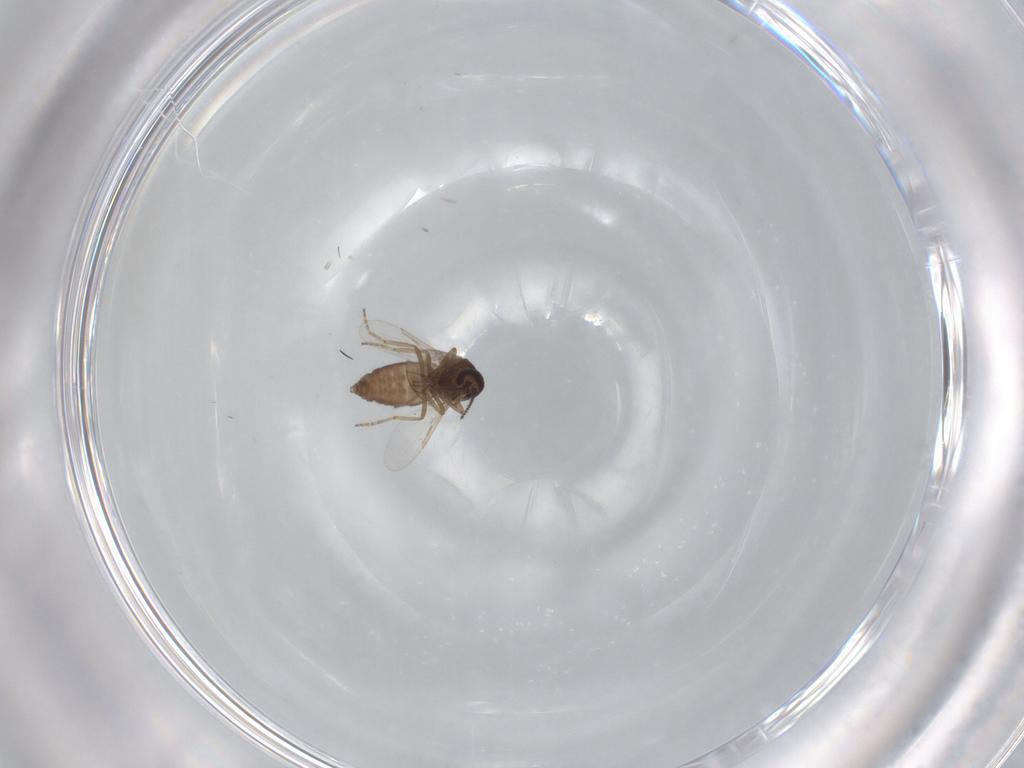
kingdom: Animalia
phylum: Arthropoda
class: Insecta
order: Diptera
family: Ceratopogonidae
